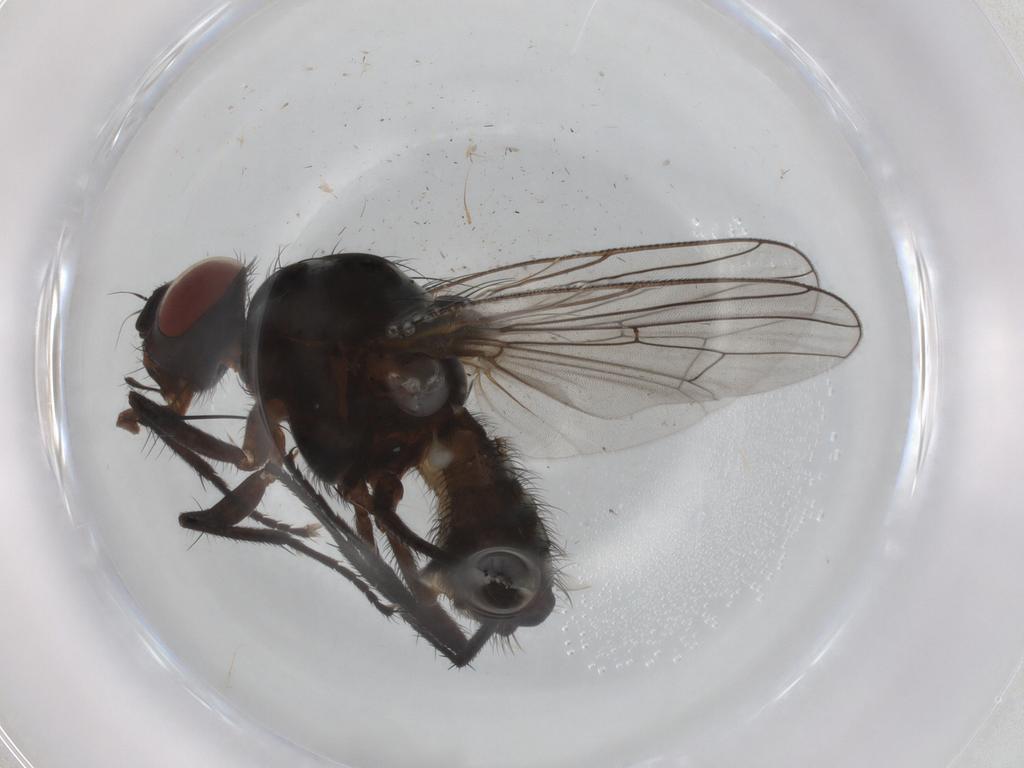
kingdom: Animalia
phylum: Arthropoda
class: Insecta
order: Diptera
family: Anthomyiidae
